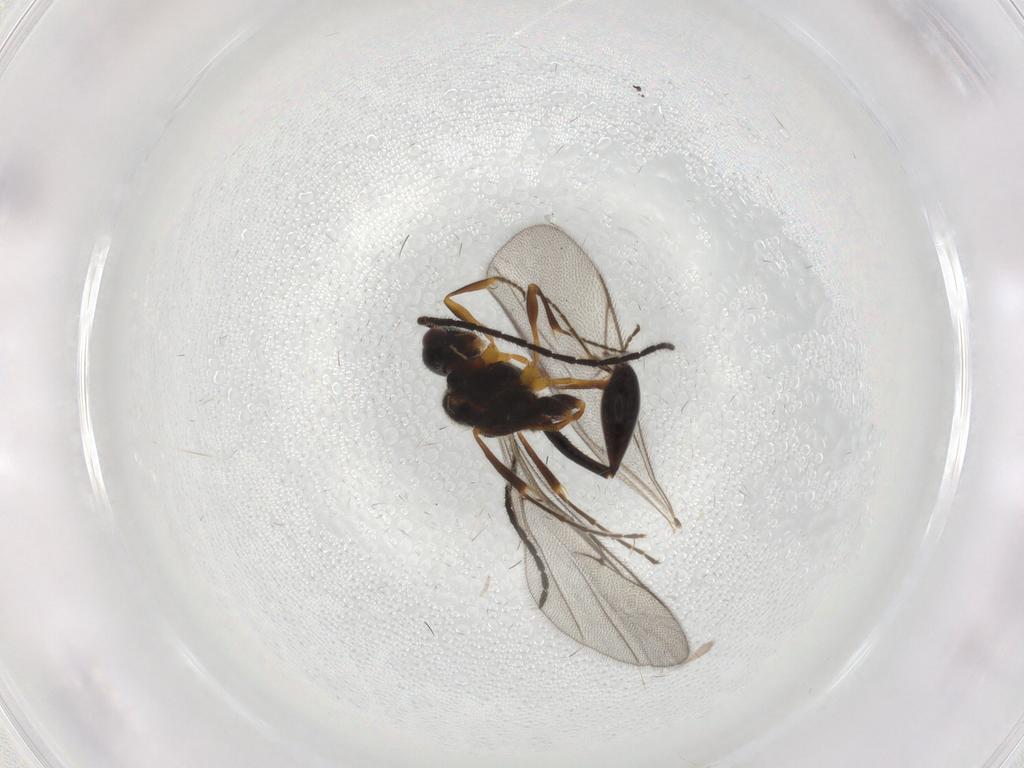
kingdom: Animalia
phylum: Arthropoda
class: Insecta
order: Hymenoptera
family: Diapriidae
